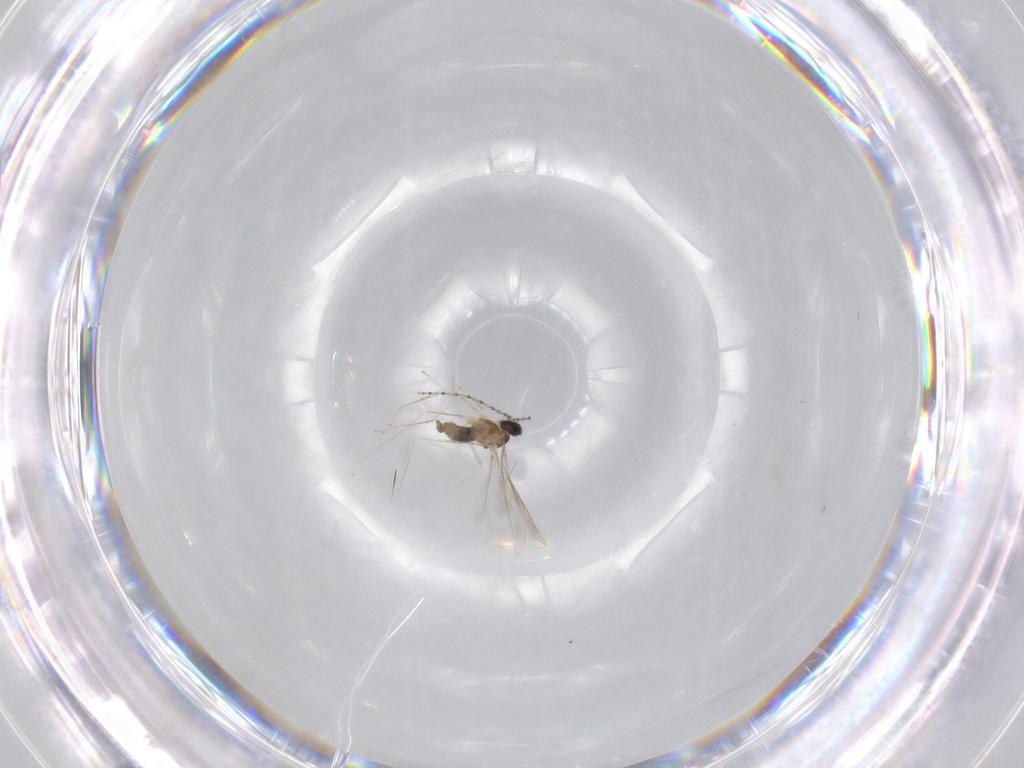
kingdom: Animalia
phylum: Arthropoda
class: Insecta
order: Diptera
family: Cecidomyiidae
